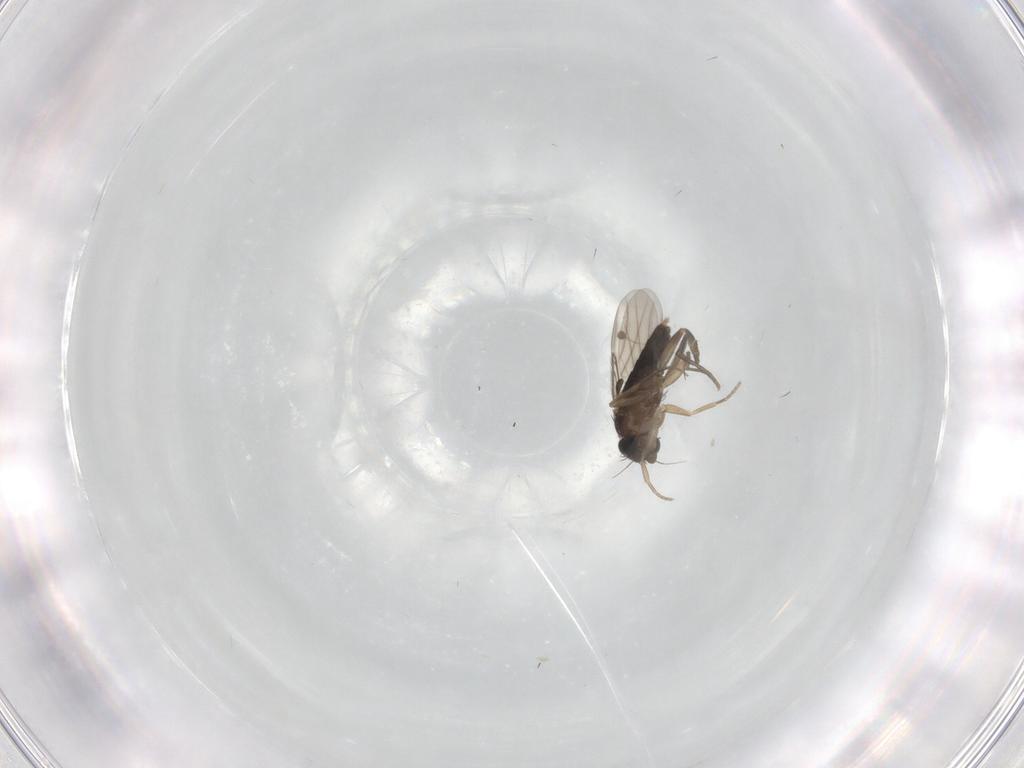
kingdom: Animalia
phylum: Arthropoda
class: Insecta
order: Diptera
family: Phoridae
